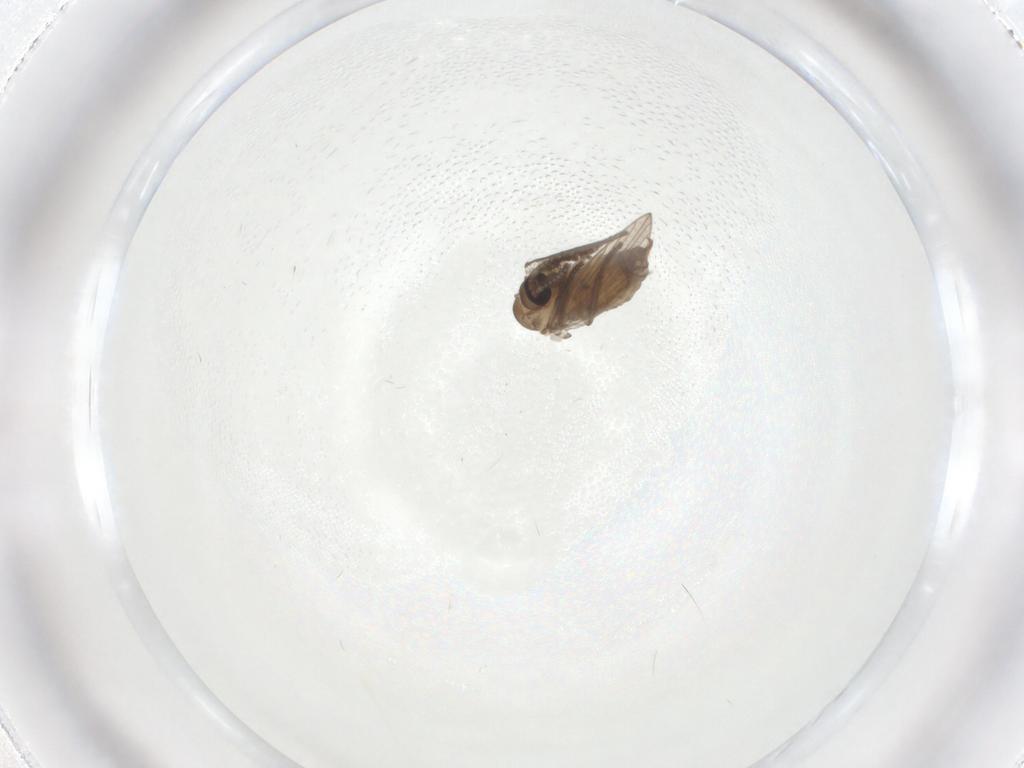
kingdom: Animalia
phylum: Arthropoda
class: Insecta
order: Diptera
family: Psychodidae
